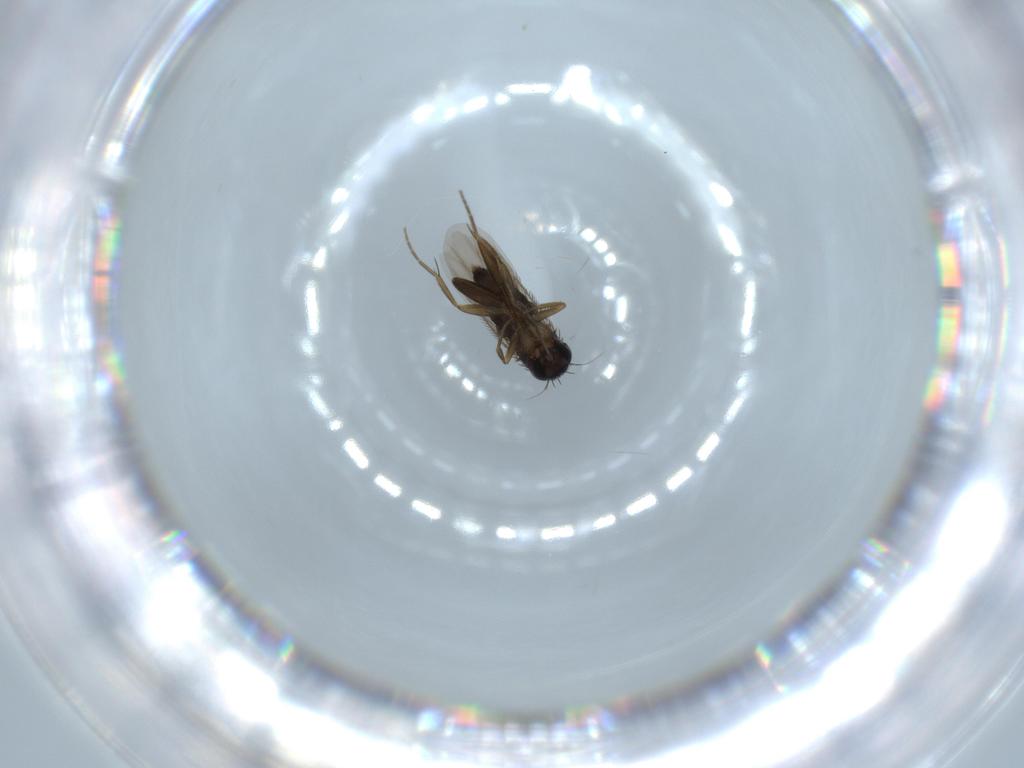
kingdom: Animalia
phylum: Arthropoda
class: Insecta
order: Diptera
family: Phoridae
